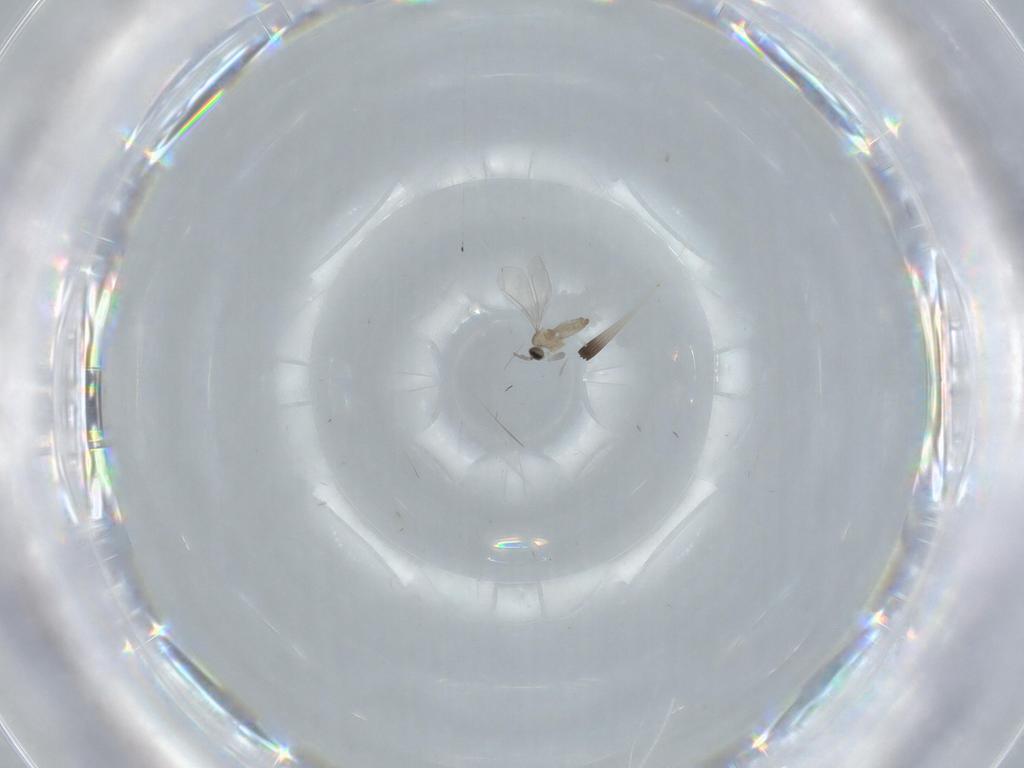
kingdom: Animalia
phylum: Arthropoda
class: Insecta
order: Diptera
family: Cecidomyiidae
